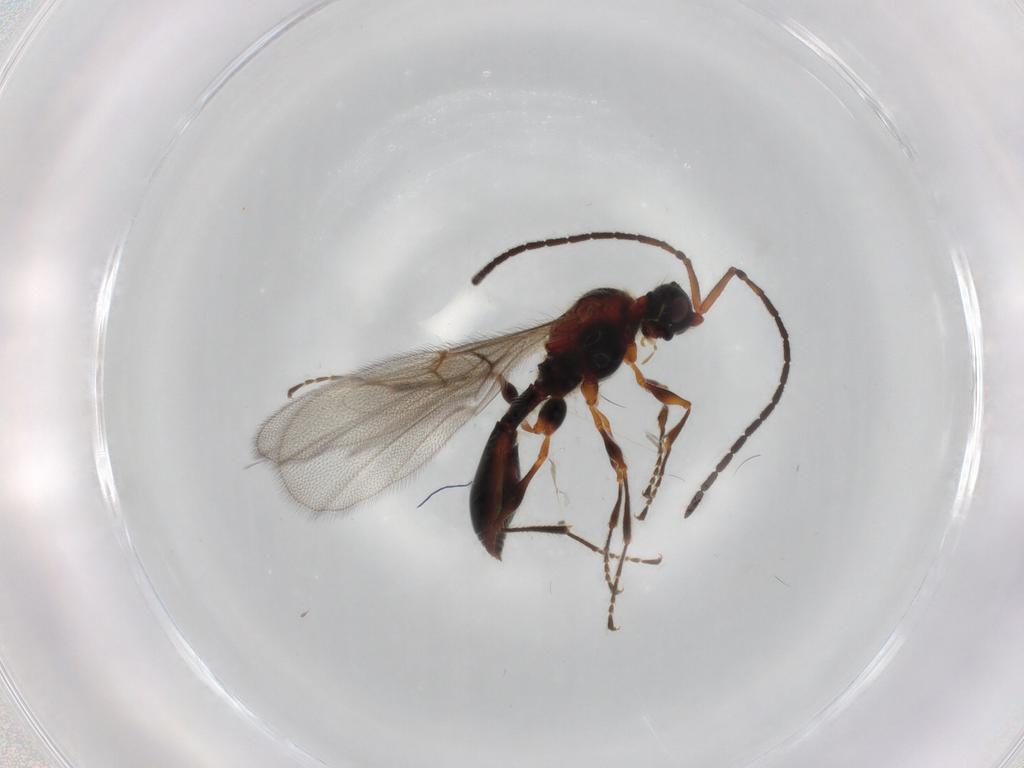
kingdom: Animalia
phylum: Arthropoda
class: Insecta
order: Hymenoptera
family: Diapriidae
